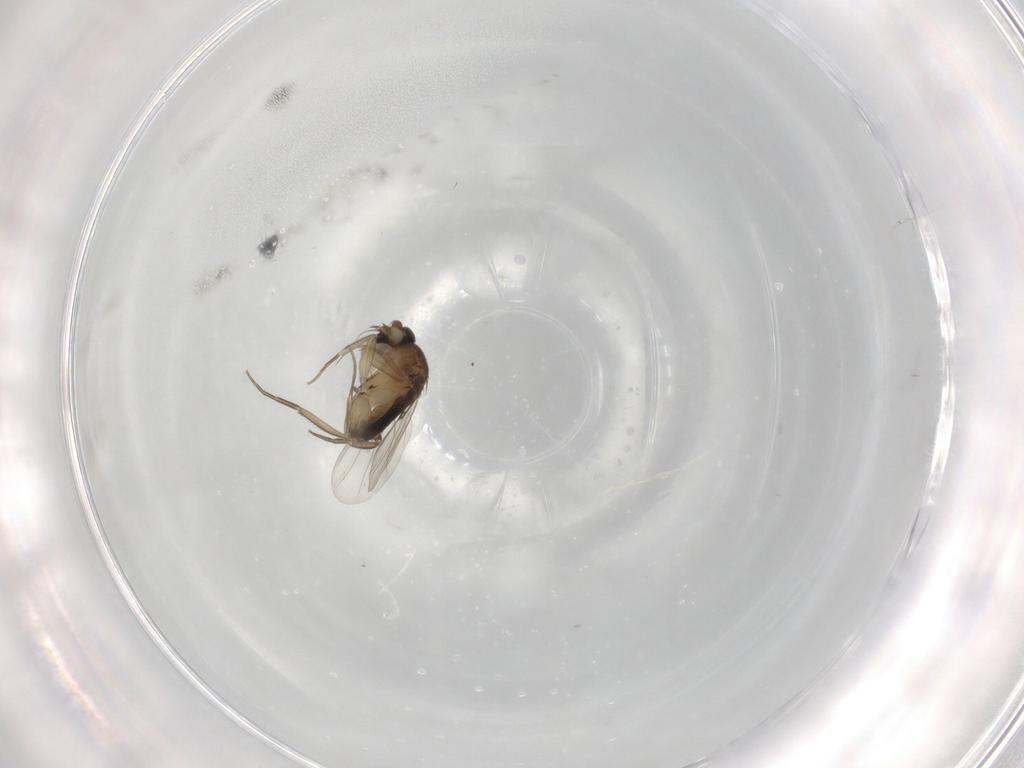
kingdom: Animalia
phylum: Arthropoda
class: Insecta
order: Diptera
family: Phoridae
